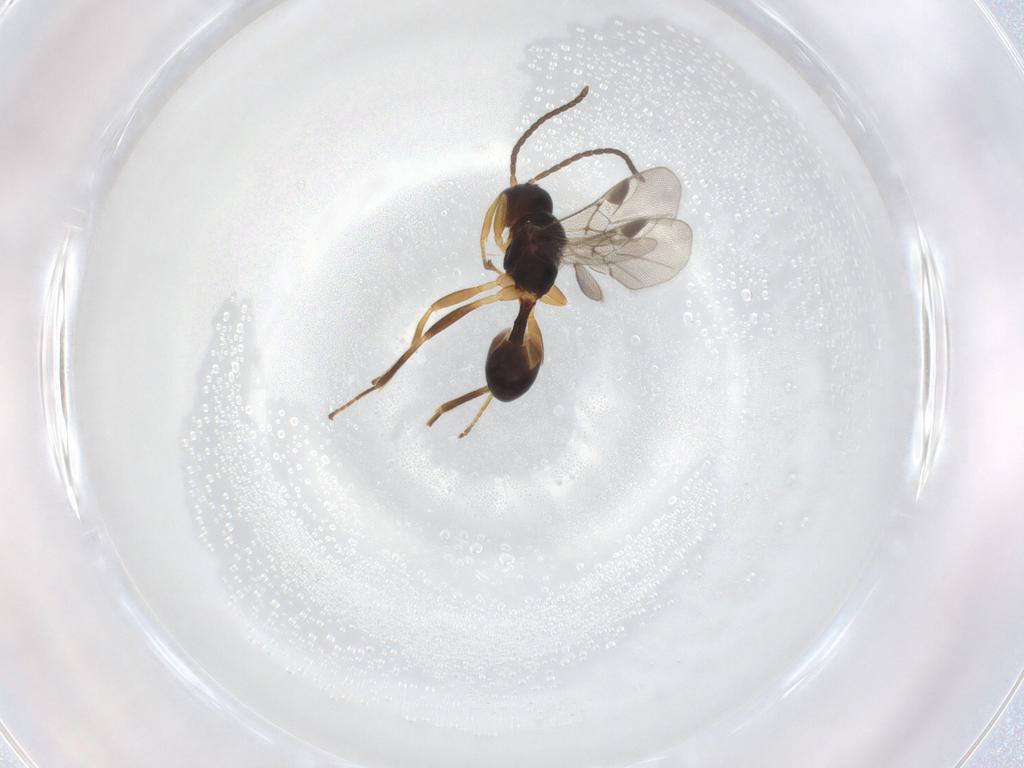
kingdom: Animalia
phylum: Arthropoda
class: Insecta
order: Hymenoptera
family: Braconidae
